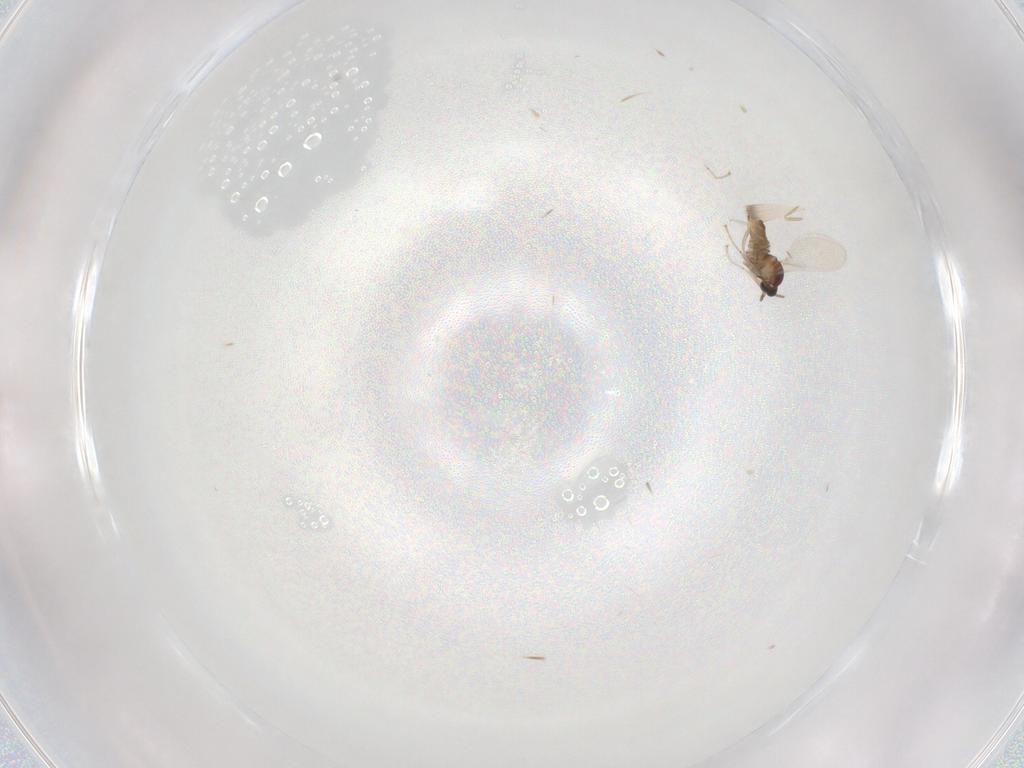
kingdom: Animalia
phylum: Arthropoda
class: Insecta
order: Diptera
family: Cecidomyiidae
